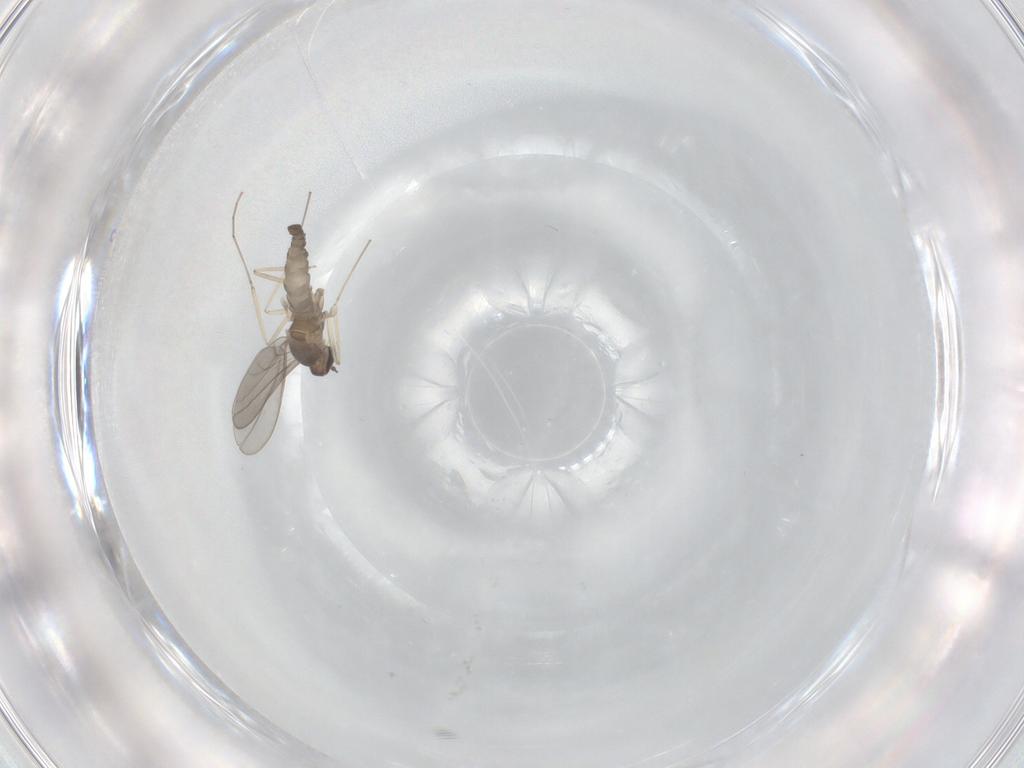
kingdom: Animalia
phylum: Arthropoda
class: Insecta
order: Diptera
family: Cecidomyiidae
